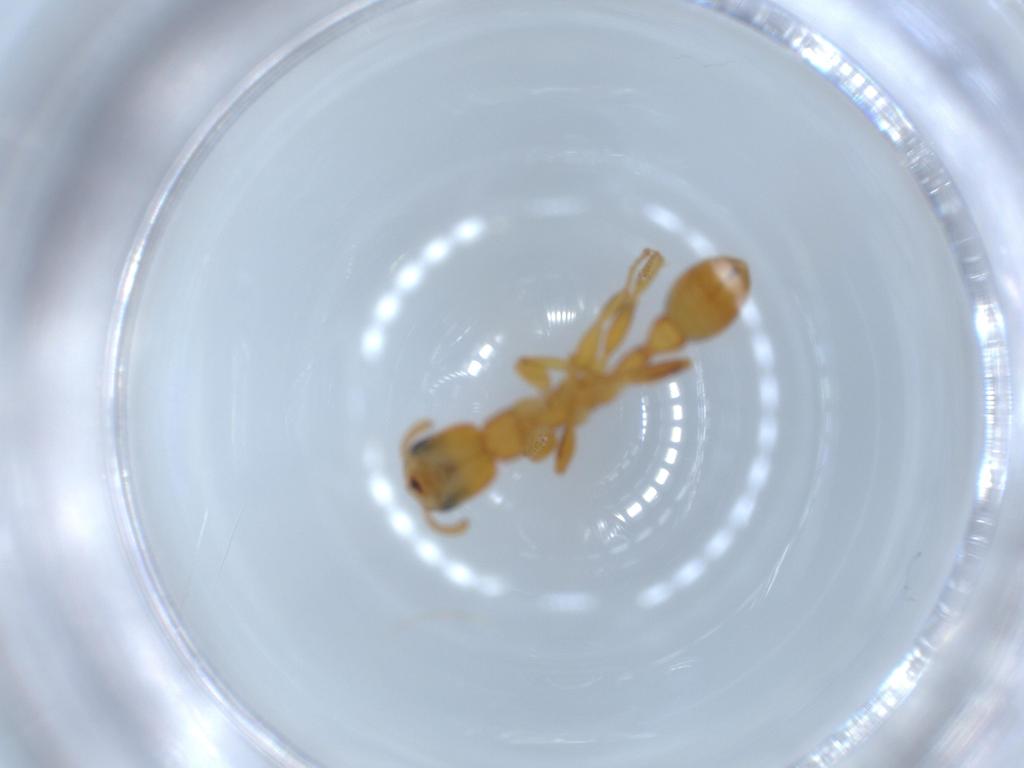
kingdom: Animalia
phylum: Arthropoda
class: Insecta
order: Hymenoptera
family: Formicidae
